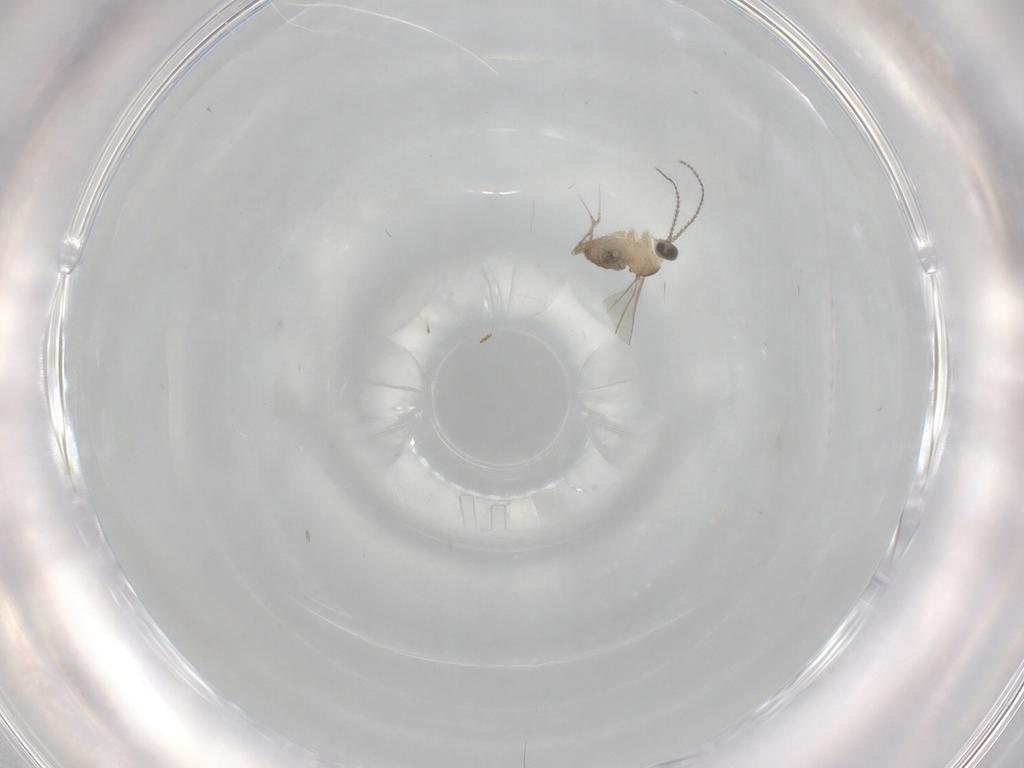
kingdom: Animalia
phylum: Arthropoda
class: Insecta
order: Diptera
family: Cecidomyiidae
